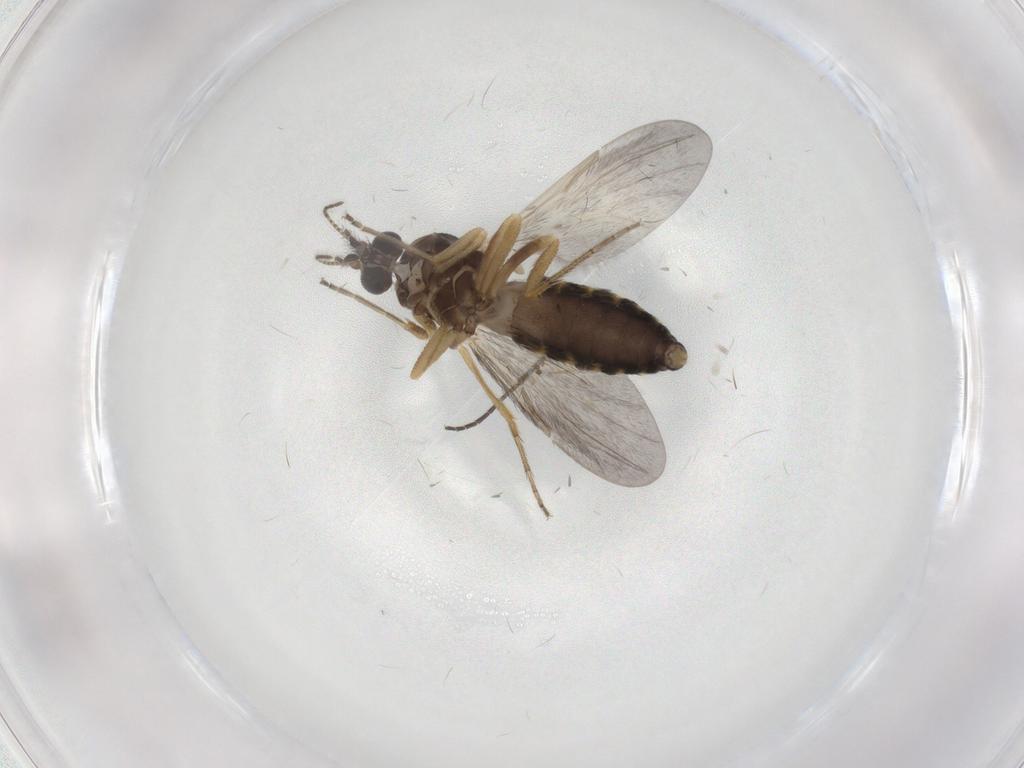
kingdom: Animalia
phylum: Arthropoda
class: Insecta
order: Diptera
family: Ceratopogonidae
